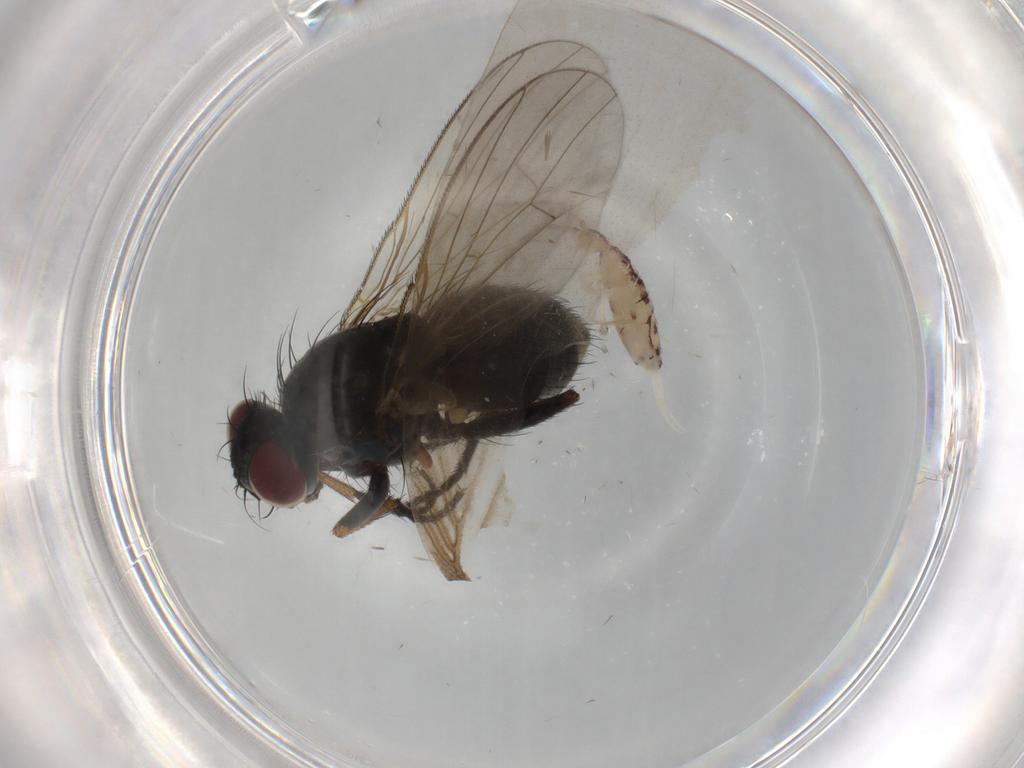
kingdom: Animalia
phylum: Arthropoda
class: Insecta
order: Diptera
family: Muscidae
